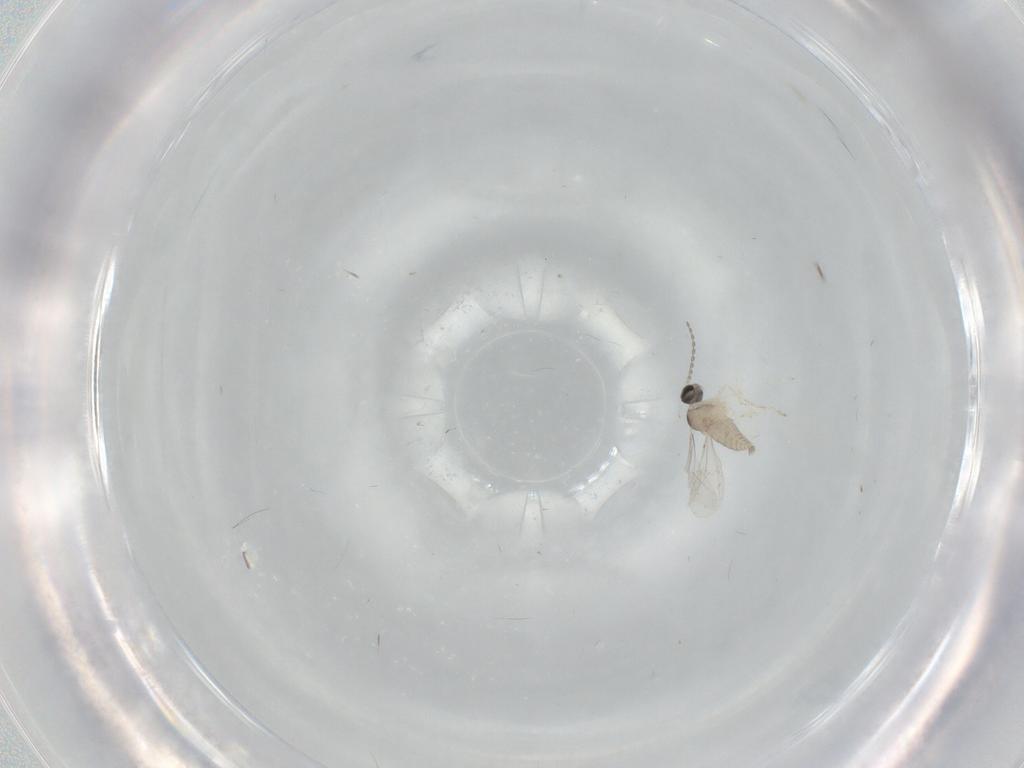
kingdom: Animalia
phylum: Arthropoda
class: Insecta
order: Diptera
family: Cecidomyiidae
